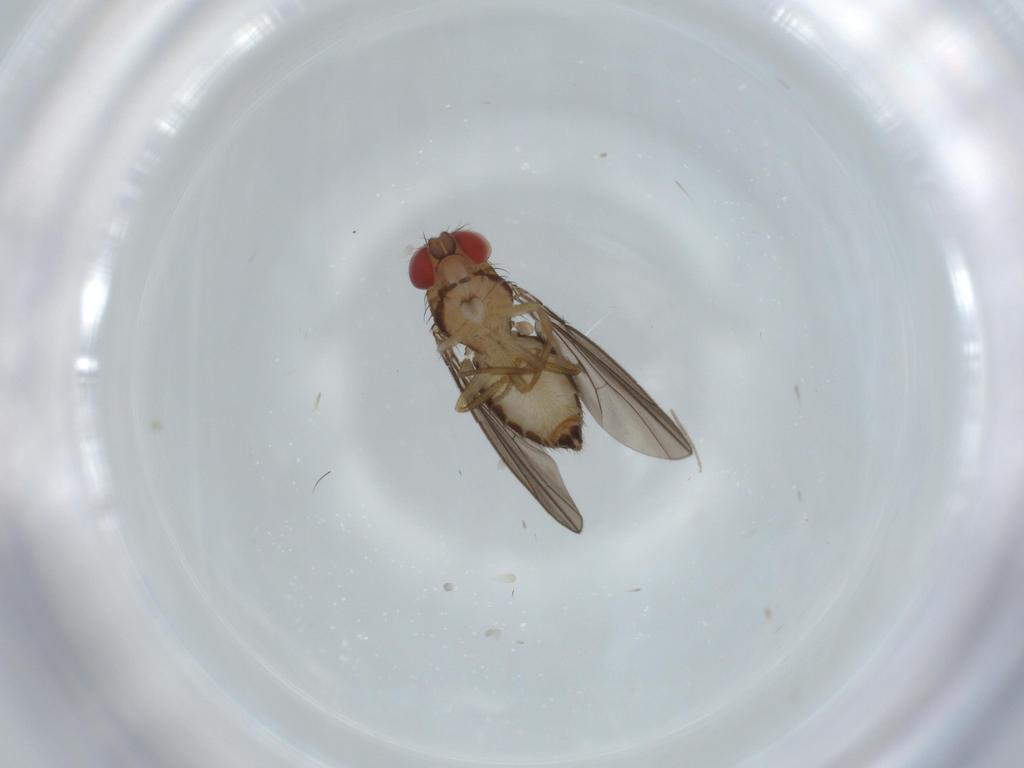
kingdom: Animalia
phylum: Arthropoda
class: Insecta
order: Diptera
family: Drosophilidae
